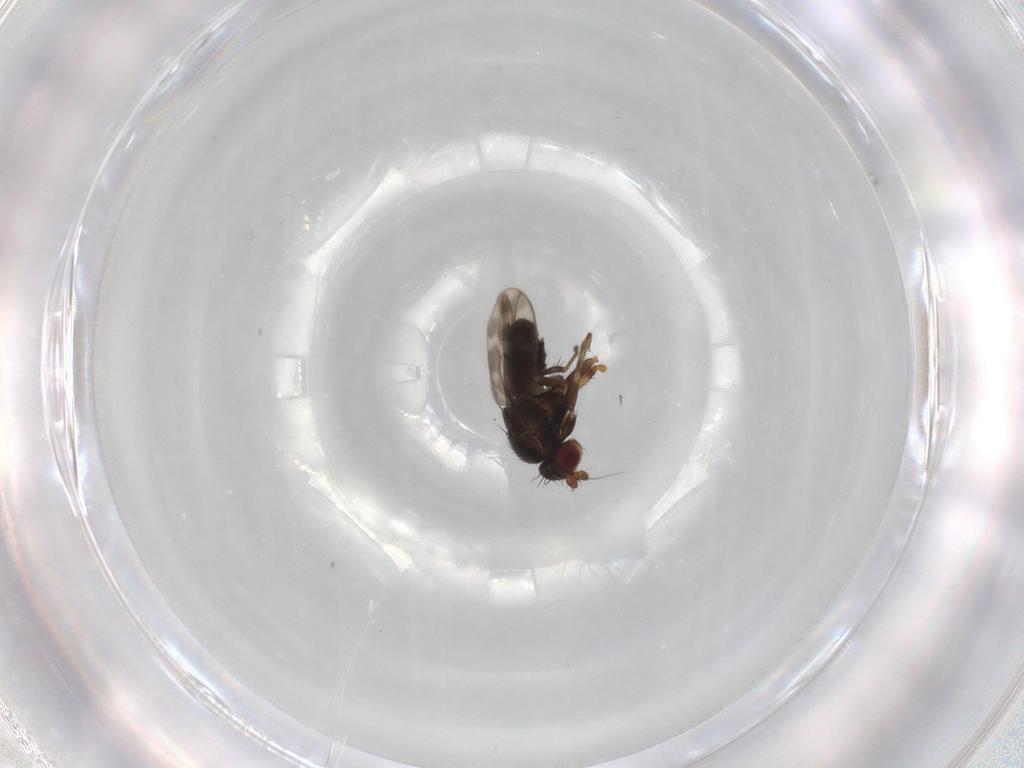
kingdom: Animalia
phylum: Arthropoda
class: Insecta
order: Diptera
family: Sphaeroceridae
